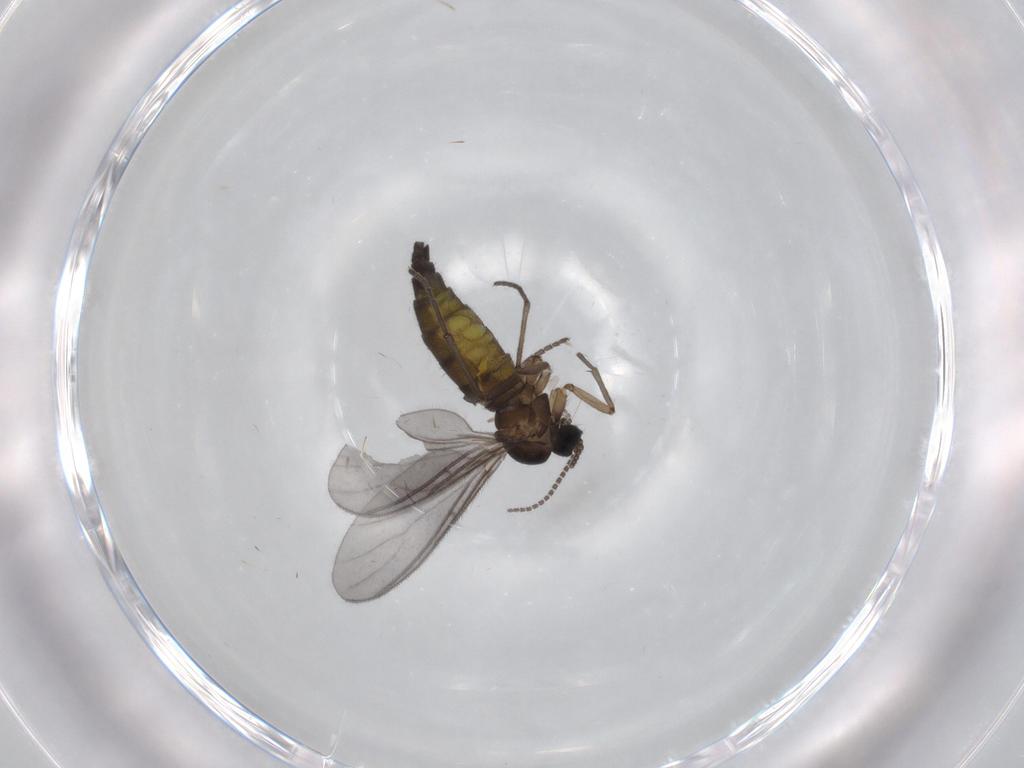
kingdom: Animalia
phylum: Arthropoda
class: Insecta
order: Diptera
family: Sciaridae
